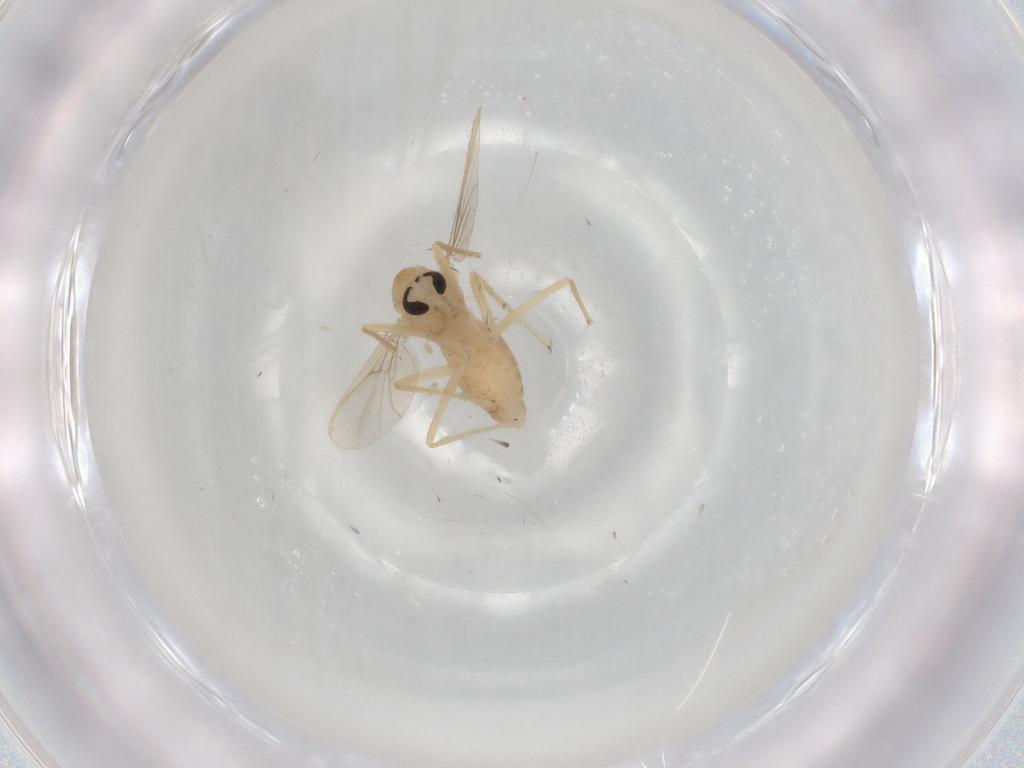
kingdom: Animalia
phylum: Arthropoda
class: Insecta
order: Diptera
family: Chironomidae
